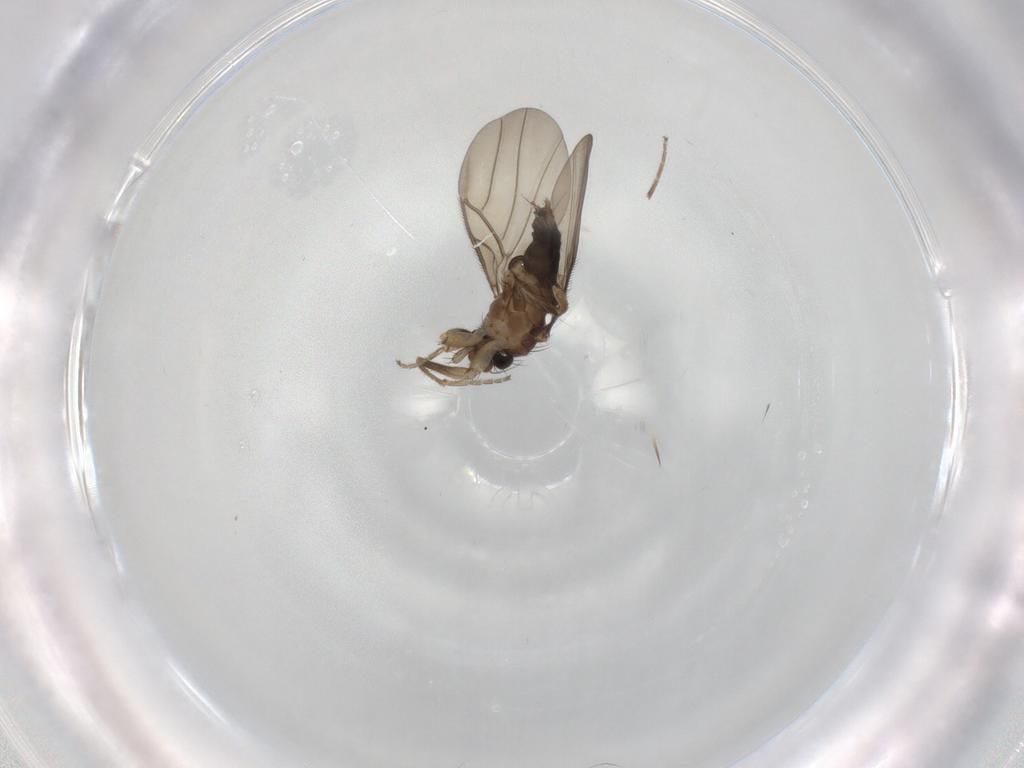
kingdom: Animalia
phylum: Arthropoda
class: Insecta
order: Diptera
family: Phoridae
